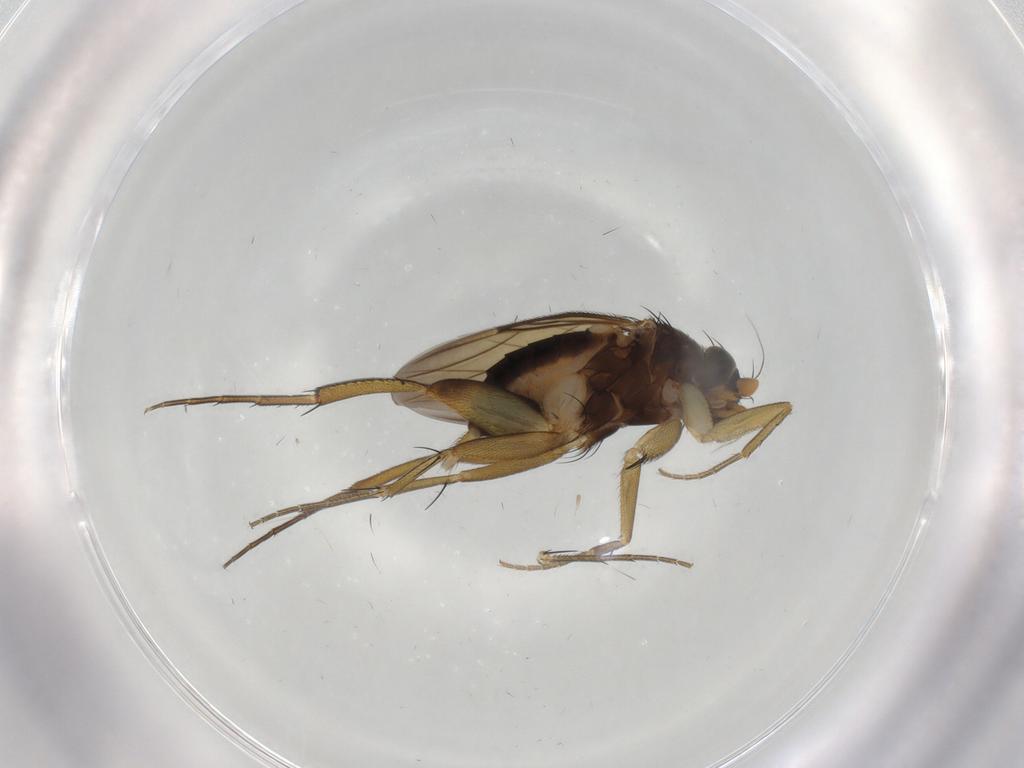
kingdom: Animalia
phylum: Arthropoda
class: Insecta
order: Diptera
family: Phoridae
